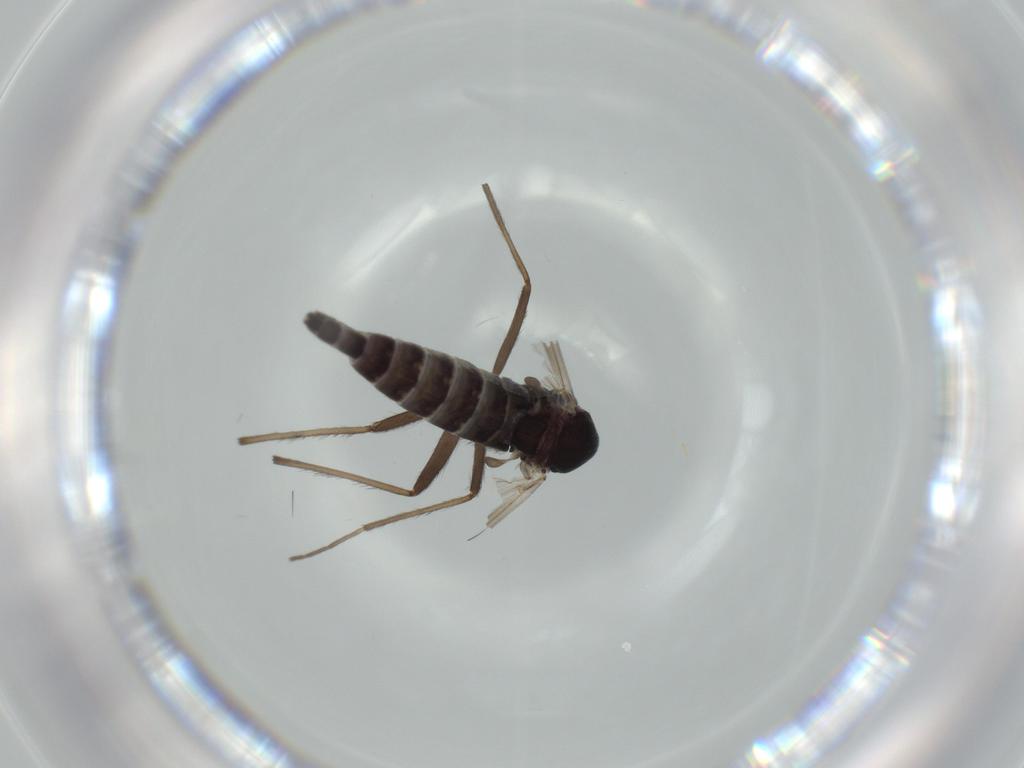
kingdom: Animalia
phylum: Arthropoda
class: Insecta
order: Diptera
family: Chironomidae
